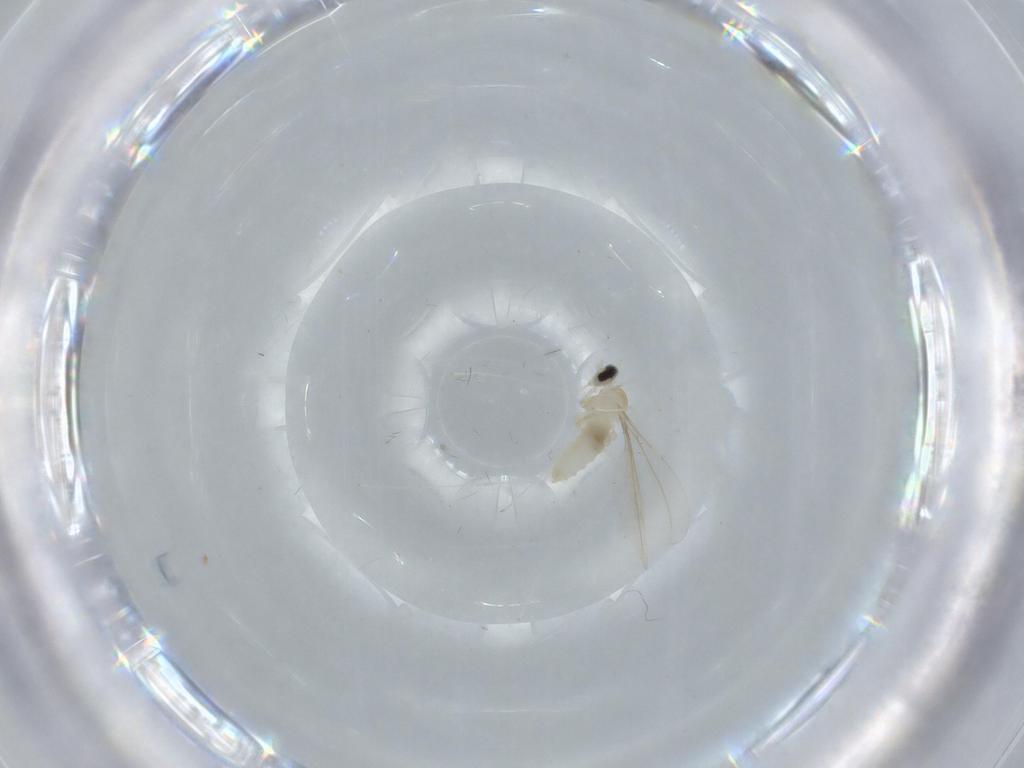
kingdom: Animalia
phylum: Arthropoda
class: Insecta
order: Diptera
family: Cecidomyiidae
